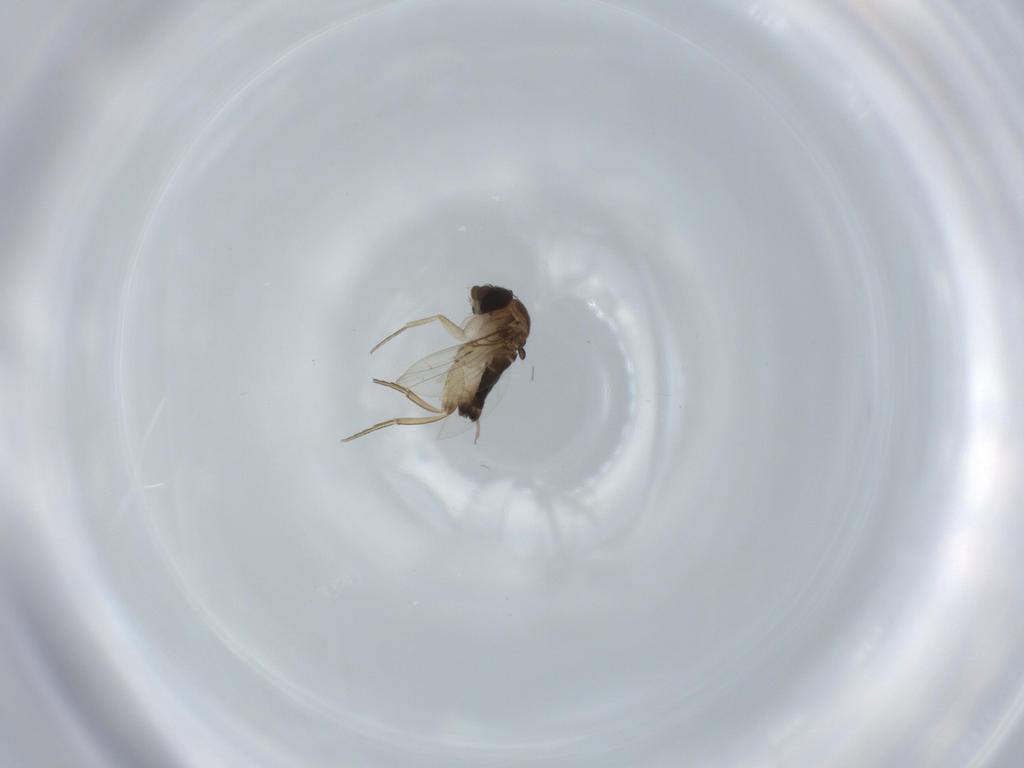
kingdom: Animalia
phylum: Arthropoda
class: Insecta
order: Diptera
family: Phoridae
